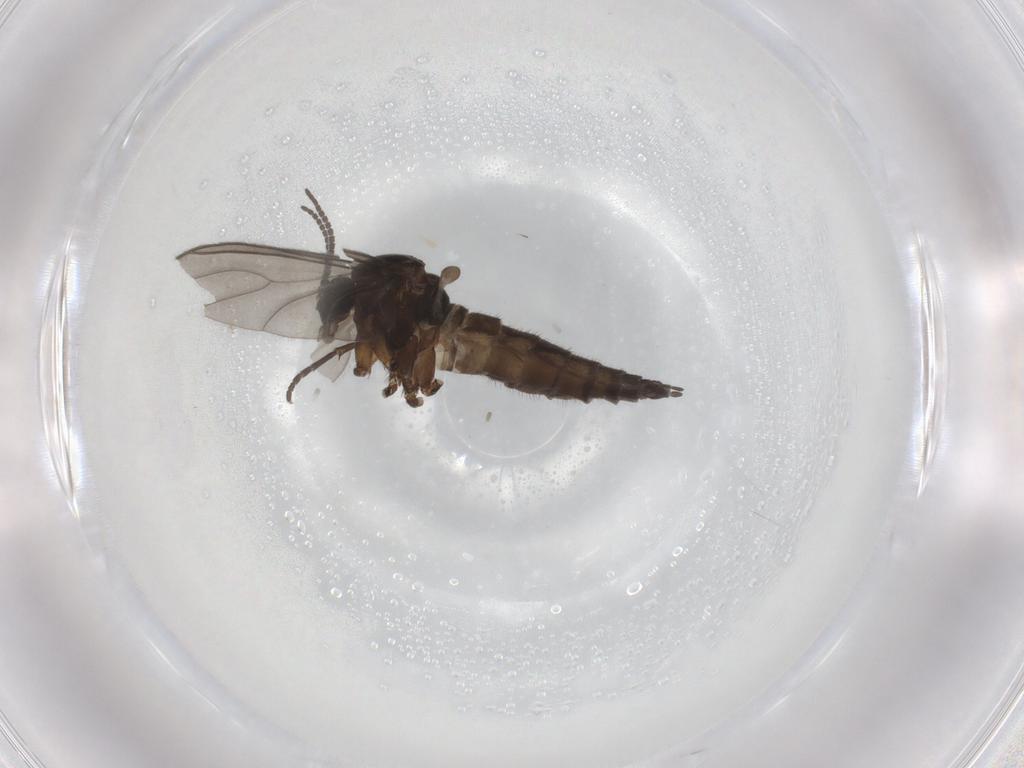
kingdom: Animalia
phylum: Arthropoda
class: Insecta
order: Diptera
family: Sciaridae
